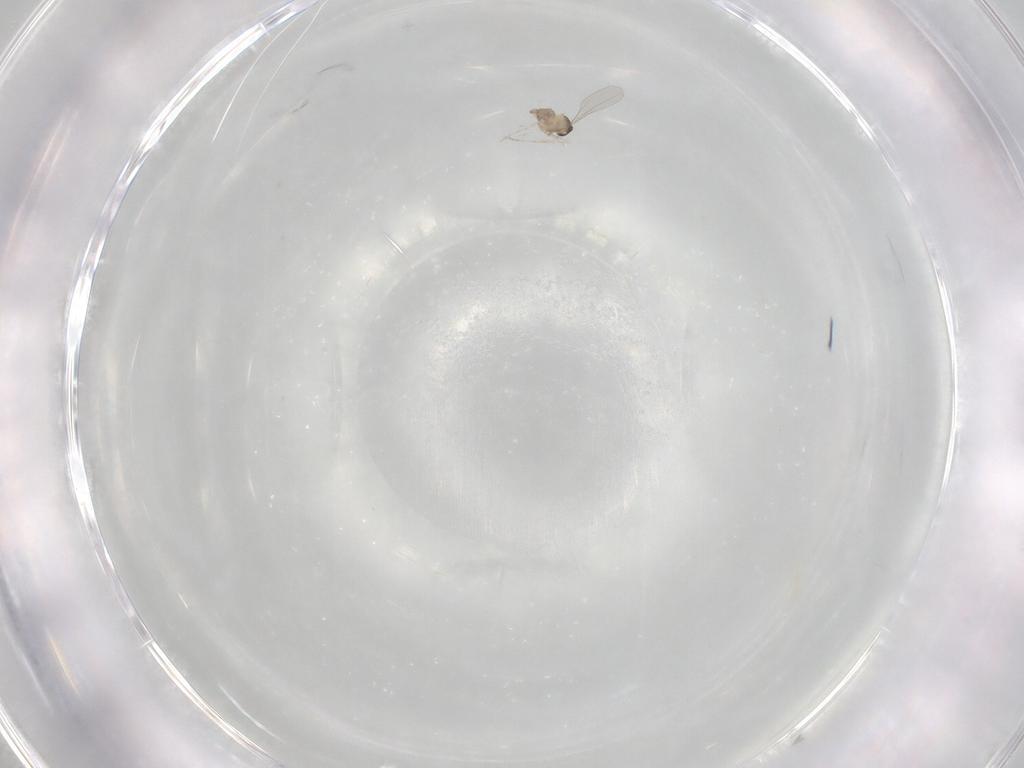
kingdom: Animalia
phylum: Arthropoda
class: Insecta
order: Diptera
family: Cecidomyiidae
